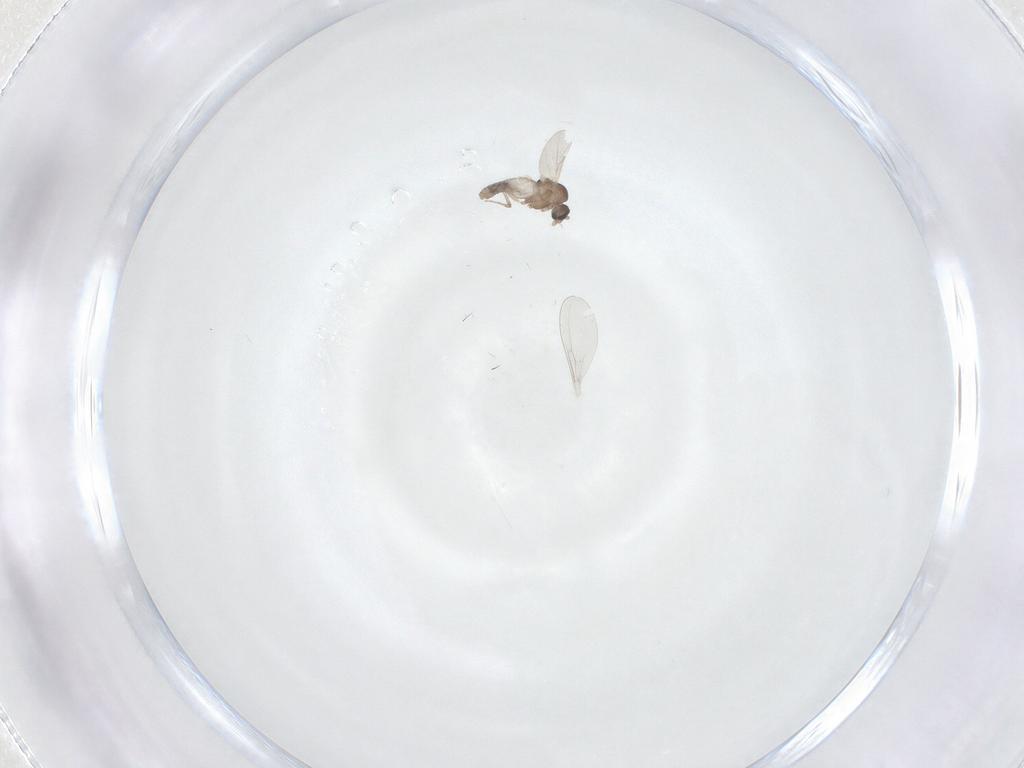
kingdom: Animalia
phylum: Arthropoda
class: Insecta
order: Diptera
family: Cecidomyiidae
